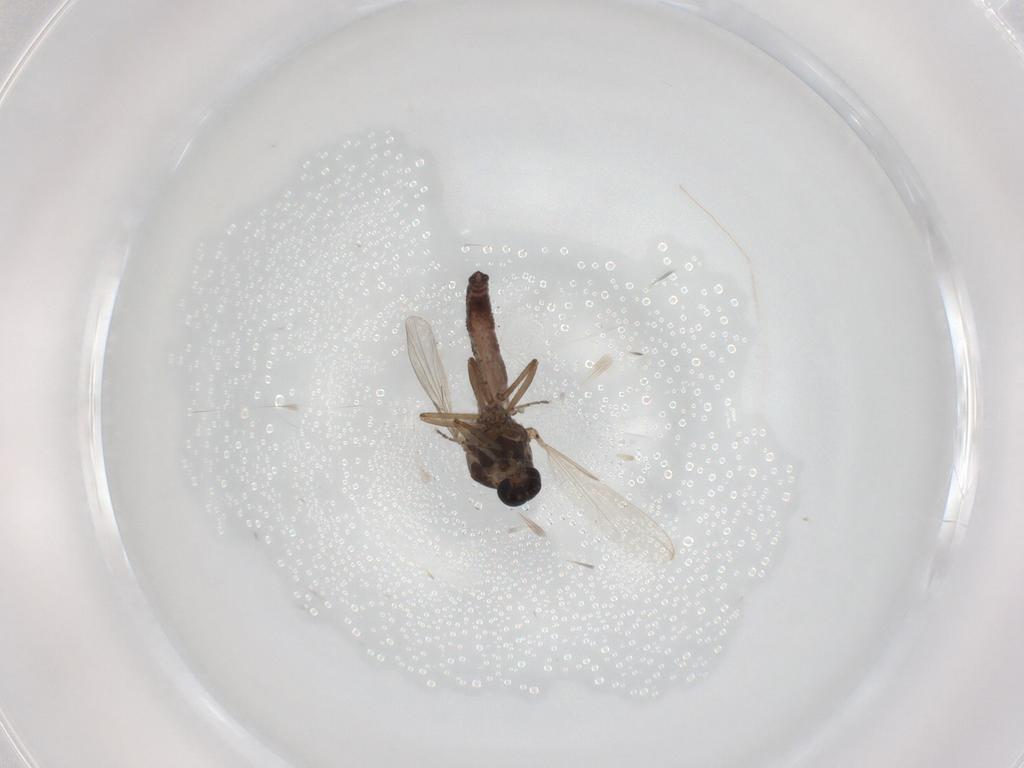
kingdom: Animalia
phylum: Arthropoda
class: Insecta
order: Diptera
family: Ceratopogonidae
